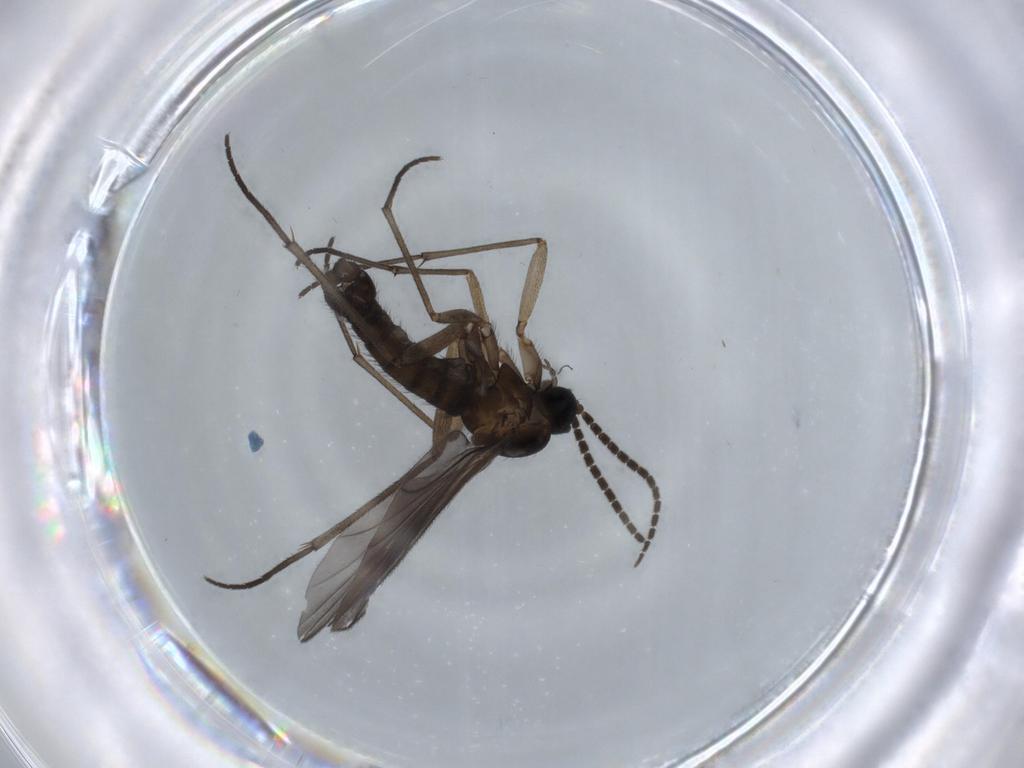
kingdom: Animalia
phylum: Arthropoda
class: Insecta
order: Diptera
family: Sciaridae
